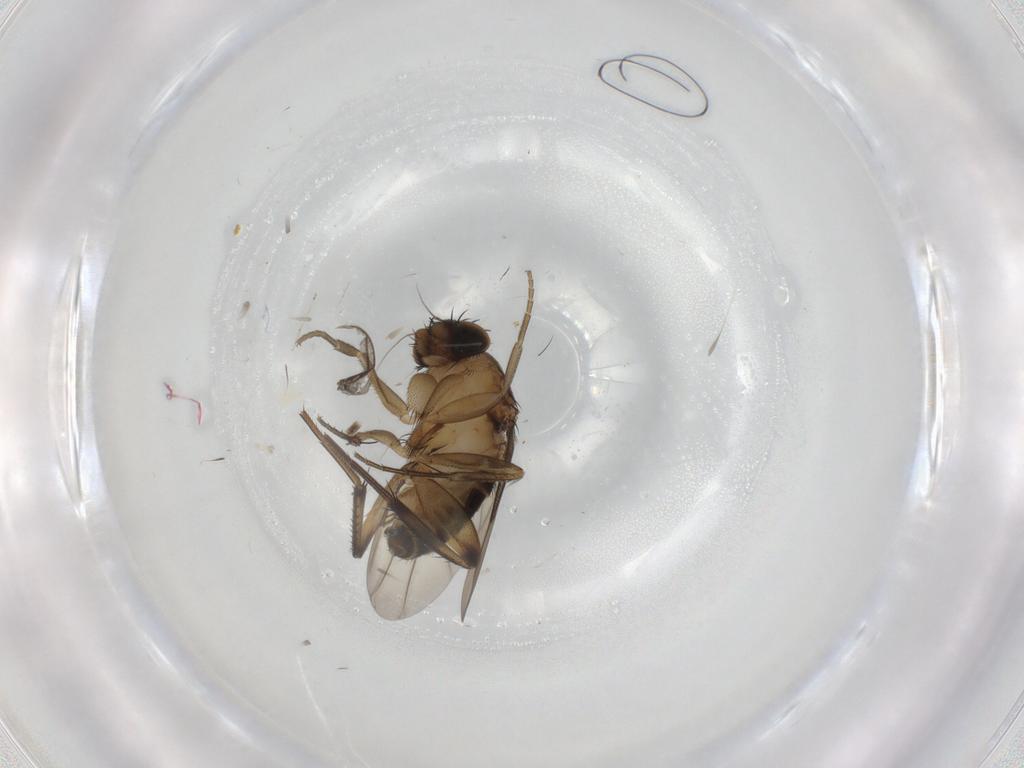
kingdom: Animalia
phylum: Arthropoda
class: Insecta
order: Diptera
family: Phoridae
